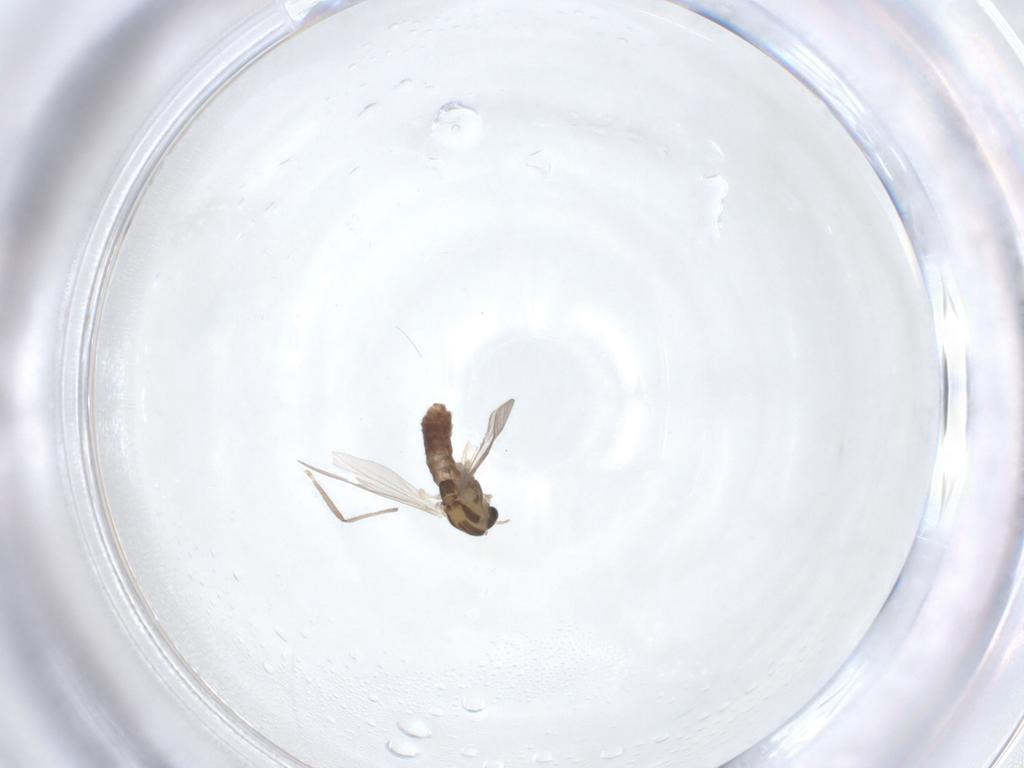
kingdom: Animalia
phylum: Arthropoda
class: Insecta
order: Diptera
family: Chironomidae
